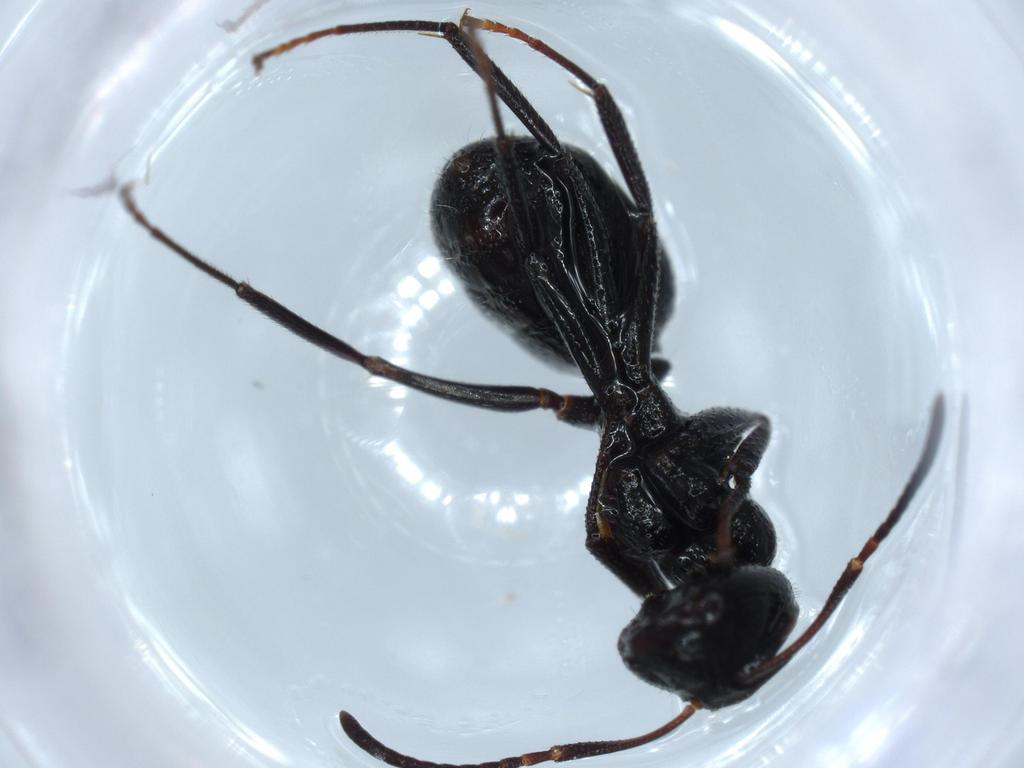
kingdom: Animalia
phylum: Arthropoda
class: Insecta
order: Hymenoptera
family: Formicidae
